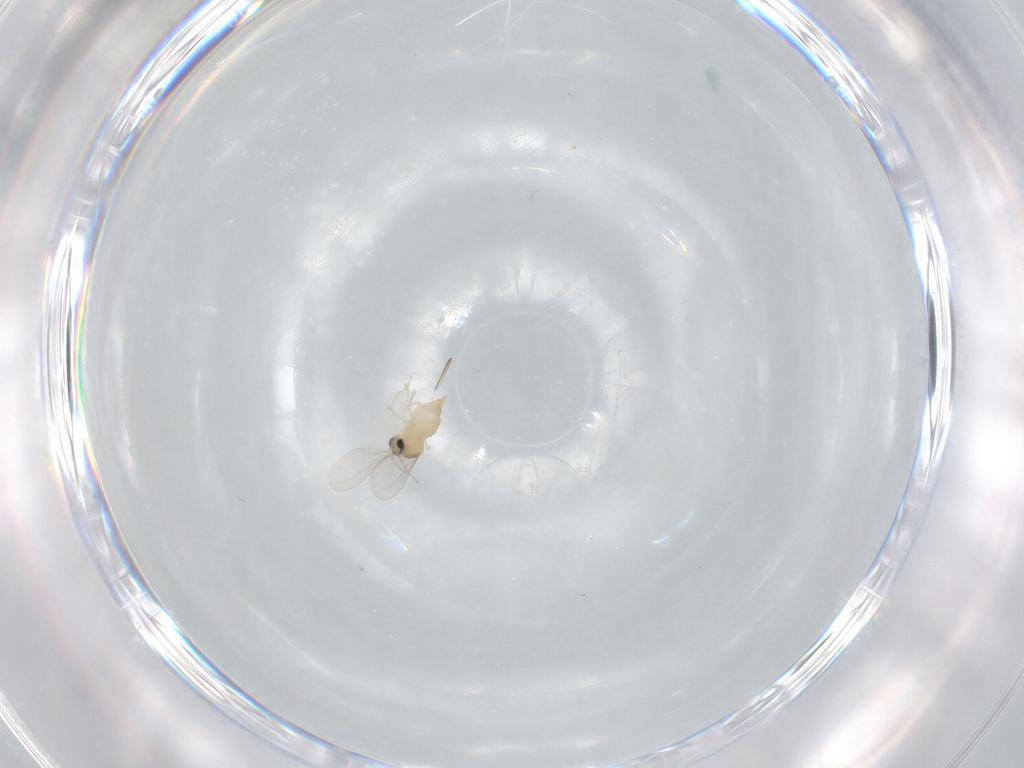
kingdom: Animalia
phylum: Arthropoda
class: Insecta
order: Diptera
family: Cecidomyiidae
